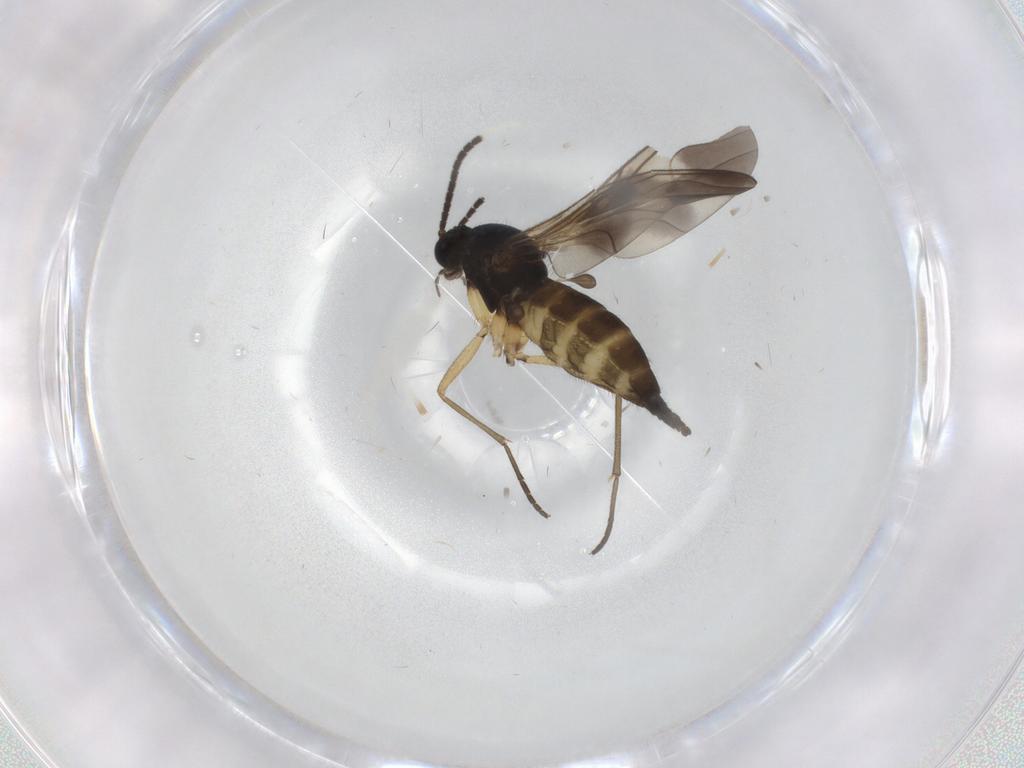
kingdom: Animalia
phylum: Arthropoda
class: Insecta
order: Diptera
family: Sciaridae
